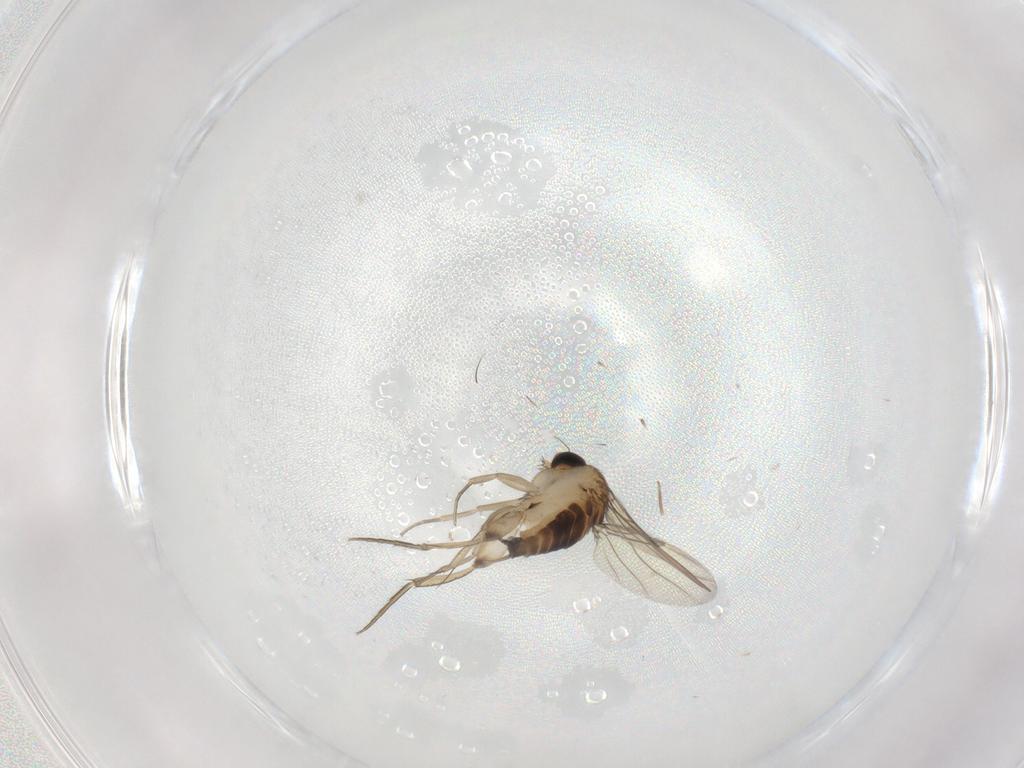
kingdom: Animalia
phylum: Arthropoda
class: Insecta
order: Diptera
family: Phoridae
